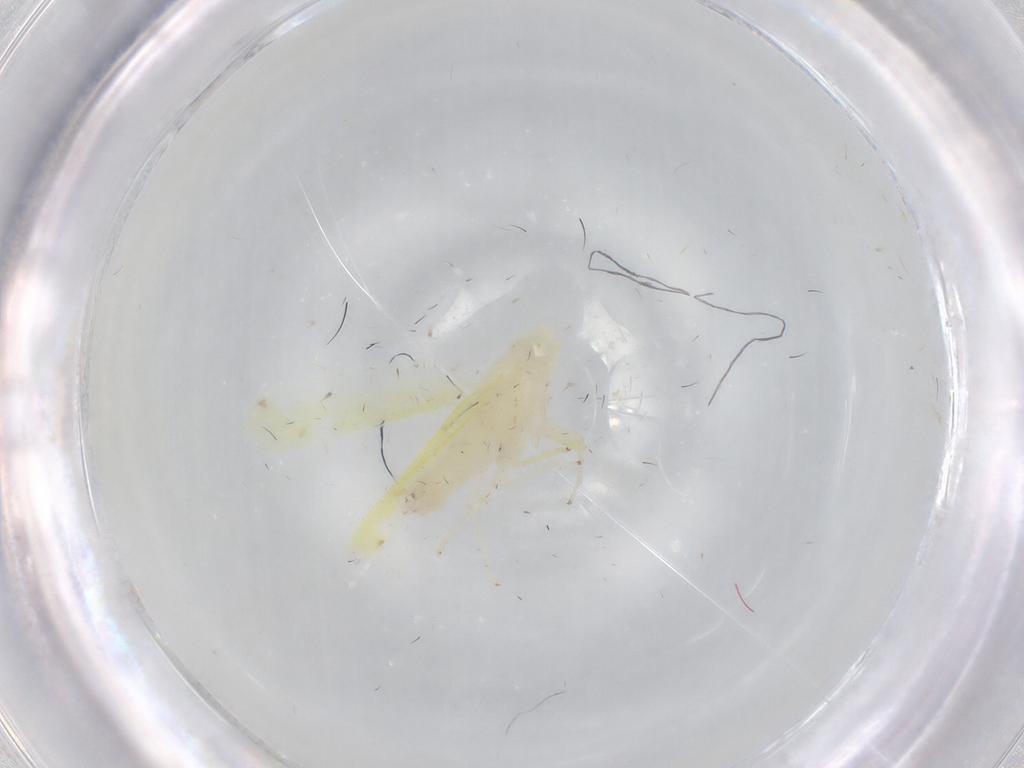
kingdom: Animalia
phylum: Arthropoda
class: Insecta
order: Hemiptera
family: Cicadellidae
